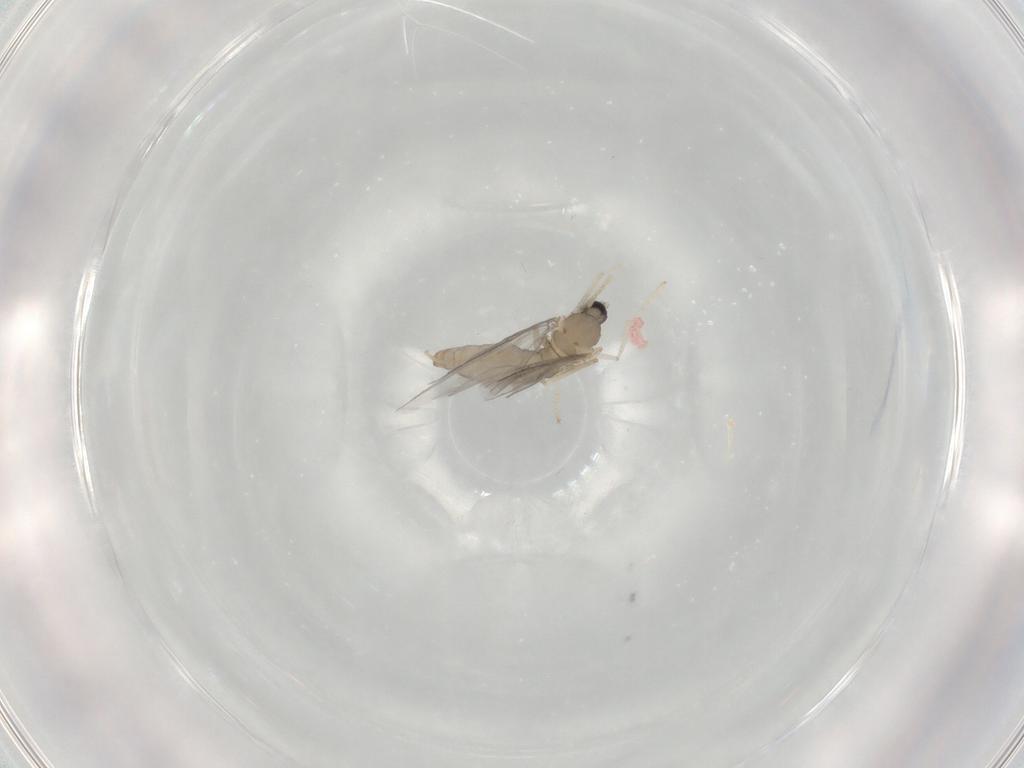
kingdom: Animalia
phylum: Arthropoda
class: Insecta
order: Diptera
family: Cecidomyiidae
